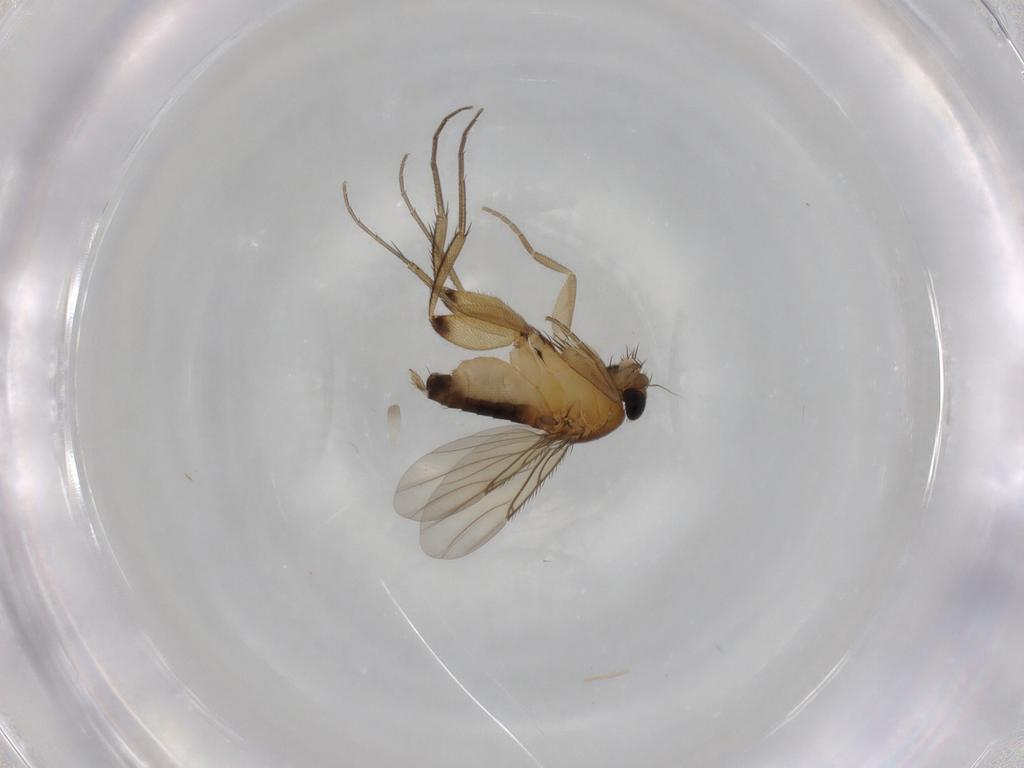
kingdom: Animalia
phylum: Arthropoda
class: Insecta
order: Diptera
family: Phoridae
